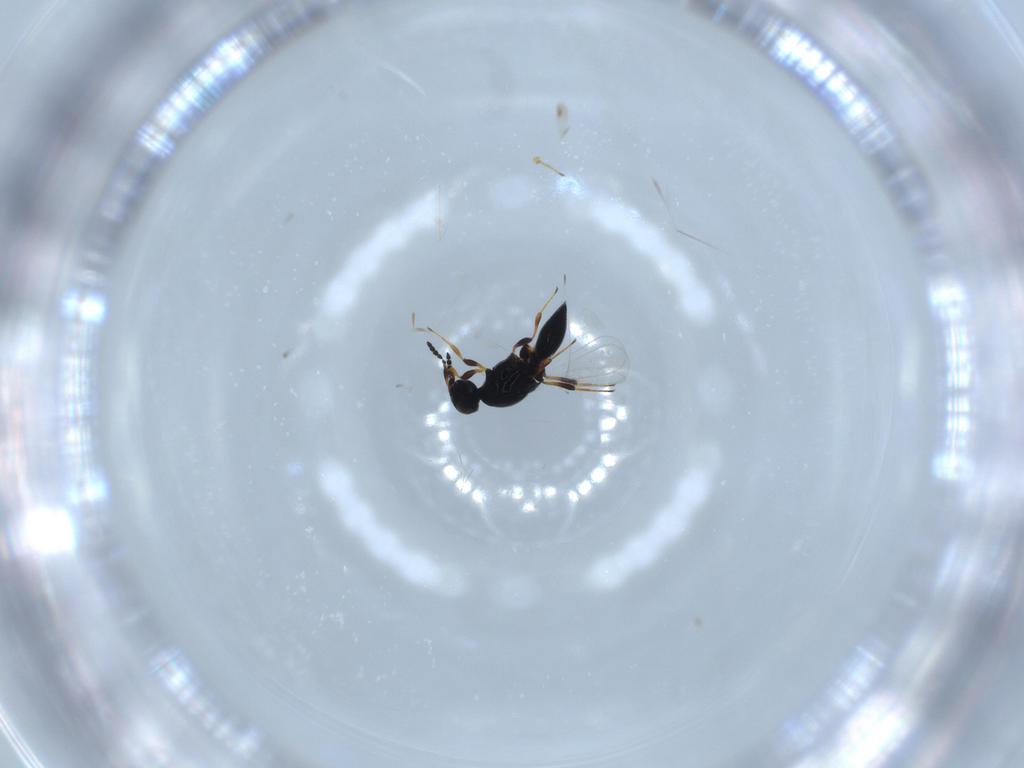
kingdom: Animalia
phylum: Arthropoda
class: Insecta
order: Hymenoptera
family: Platygastridae
